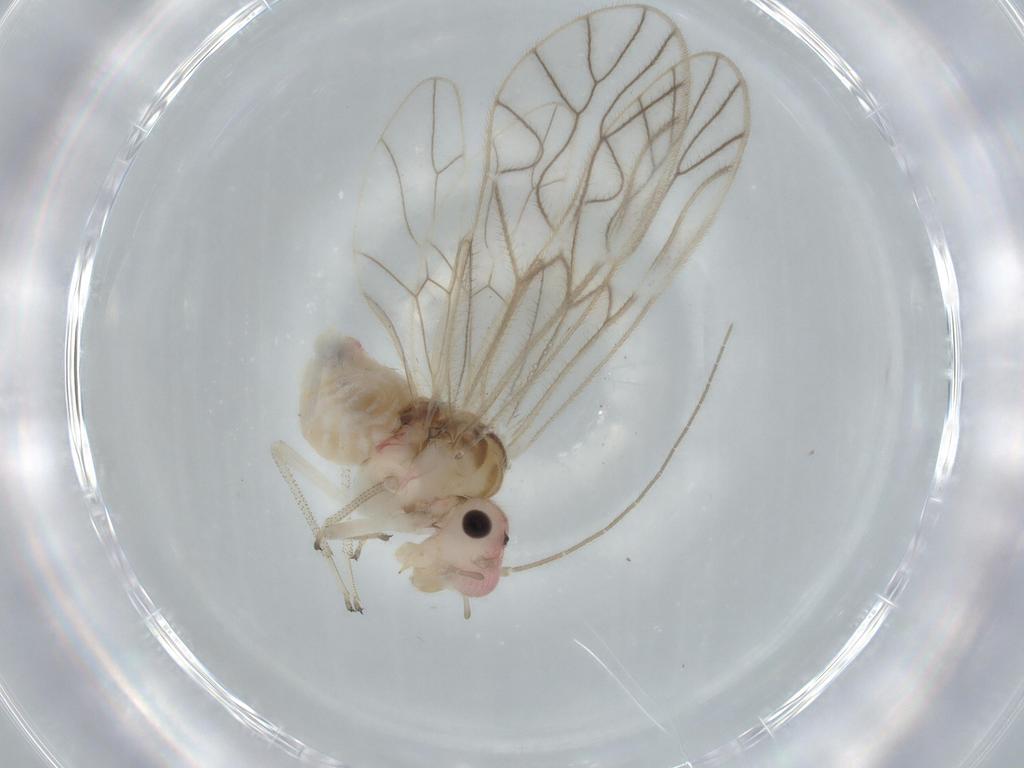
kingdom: Animalia
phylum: Arthropoda
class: Insecta
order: Psocodea
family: Amphipsocidae
